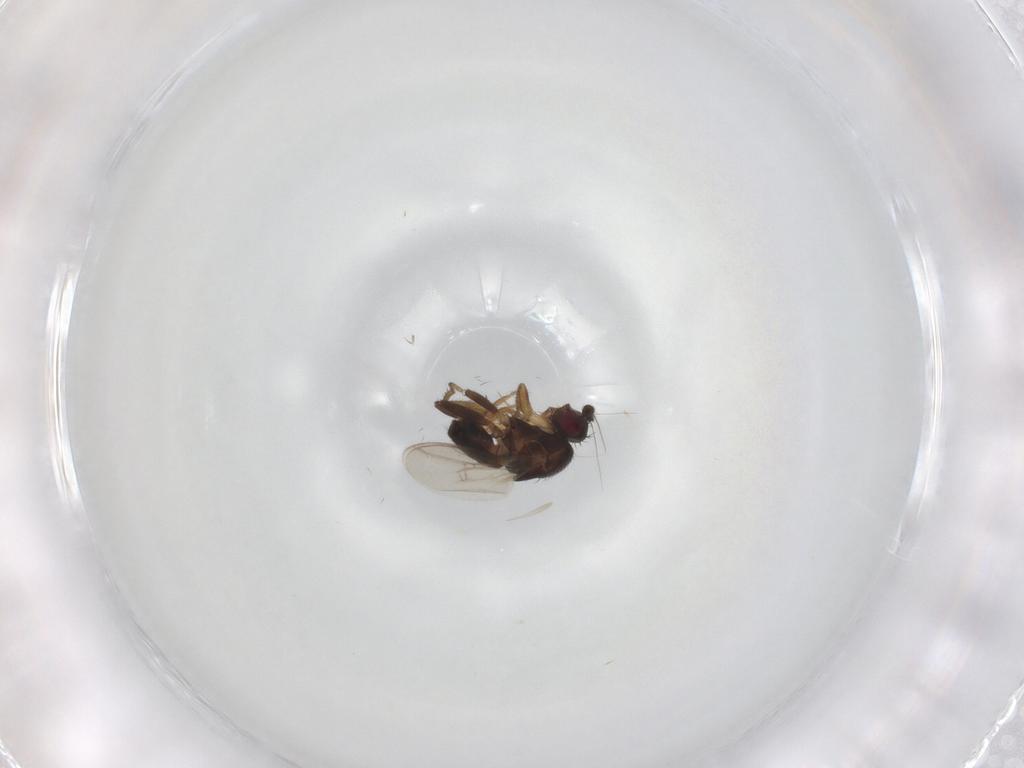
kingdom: Animalia
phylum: Arthropoda
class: Insecta
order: Diptera
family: Sphaeroceridae
